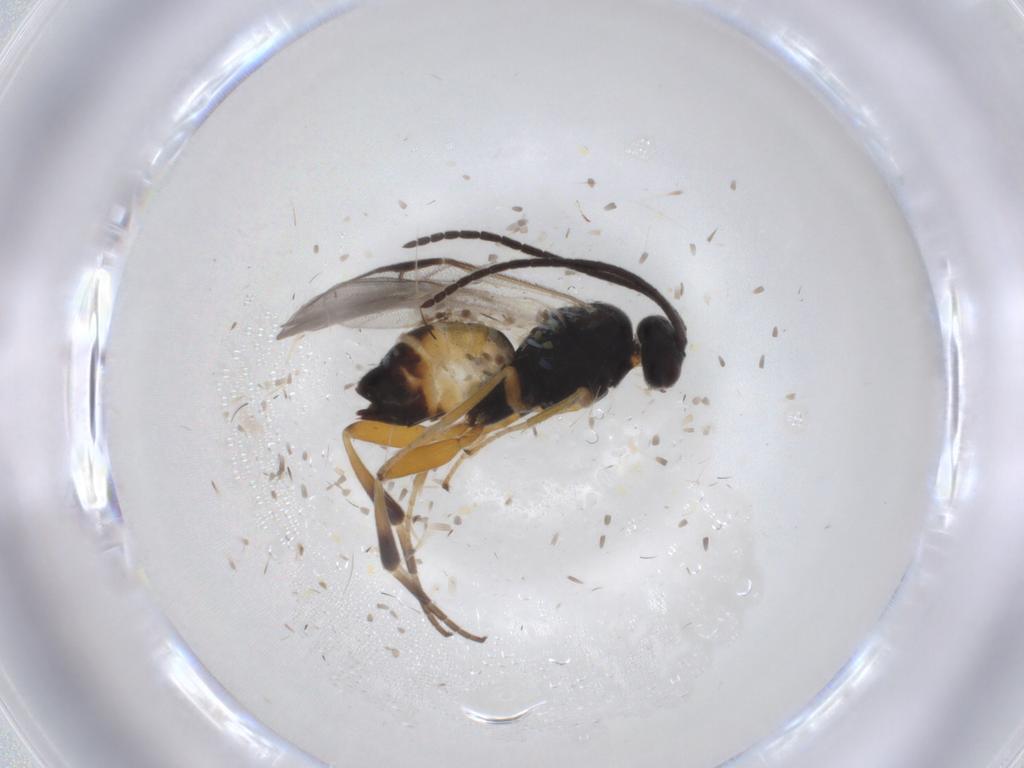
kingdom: Animalia
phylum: Arthropoda
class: Insecta
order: Hymenoptera
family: Braconidae
